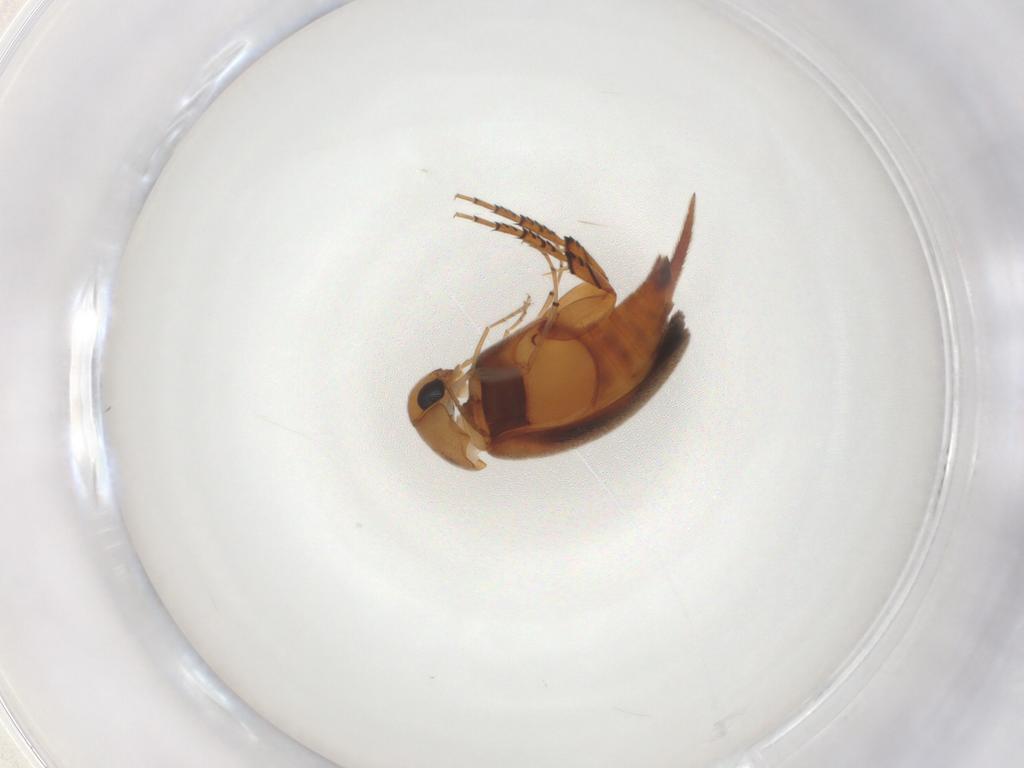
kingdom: Animalia
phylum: Arthropoda
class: Insecta
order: Coleoptera
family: Mordellidae
